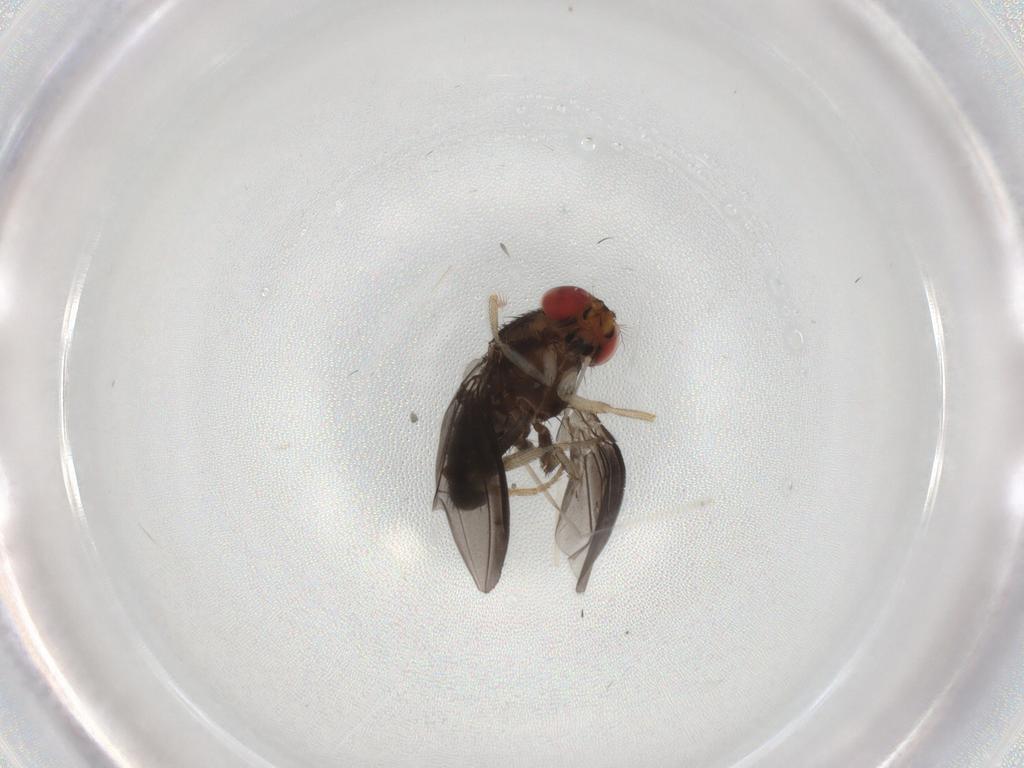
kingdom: Animalia
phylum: Arthropoda
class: Insecta
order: Diptera
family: Cecidomyiidae
